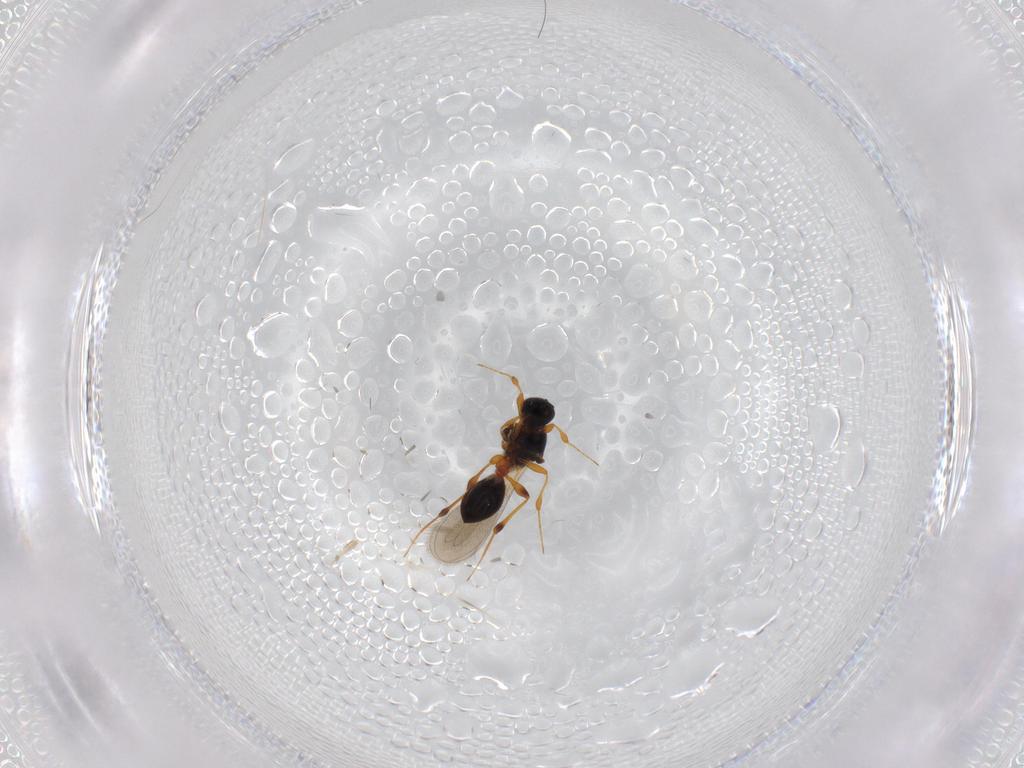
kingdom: Animalia
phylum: Arthropoda
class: Insecta
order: Hymenoptera
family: Platygastridae
